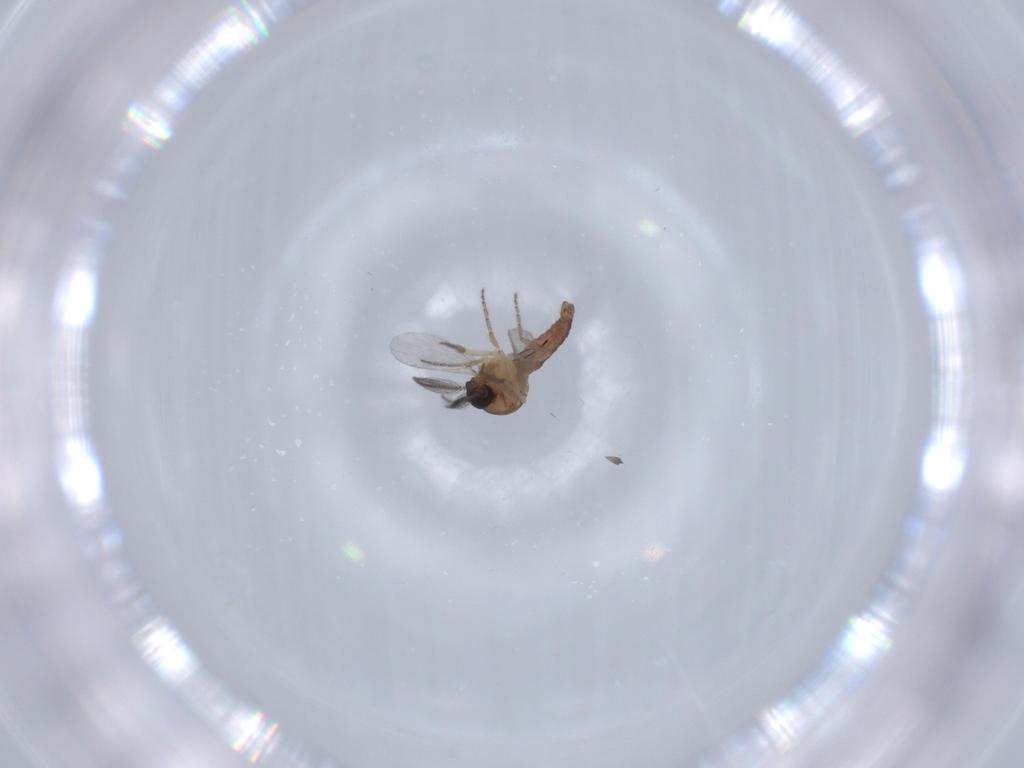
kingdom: Animalia
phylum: Arthropoda
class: Insecta
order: Diptera
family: Ceratopogonidae
